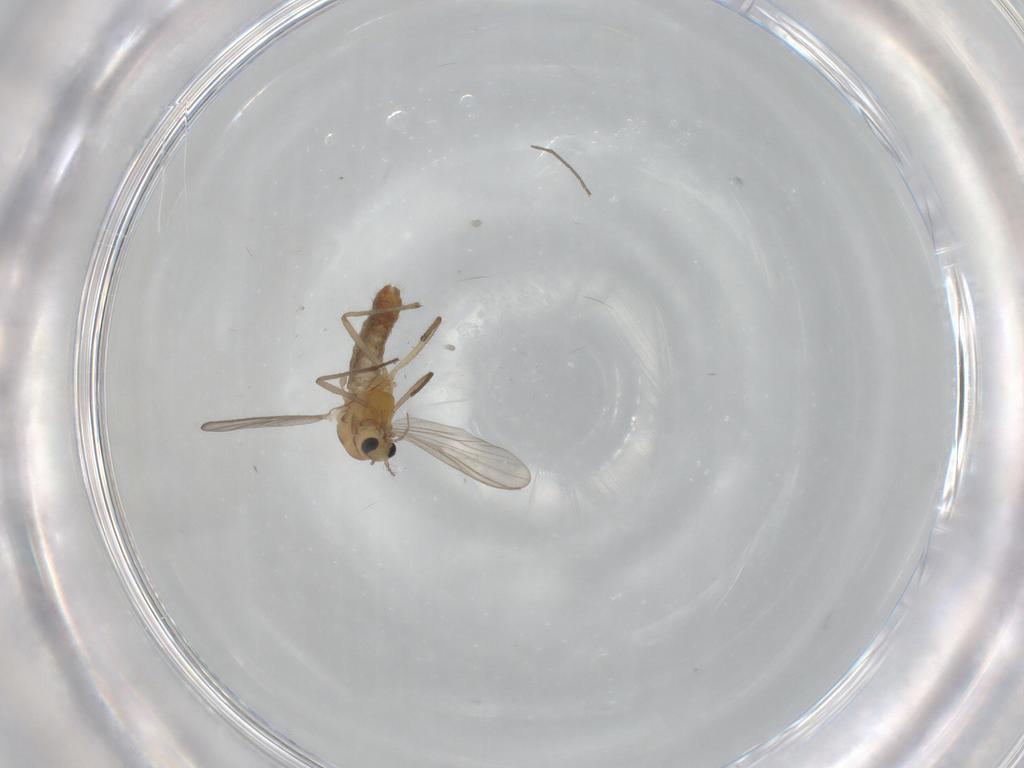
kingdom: Animalia
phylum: Arthropoda
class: Insecta
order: Diptera
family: Chironomidae
